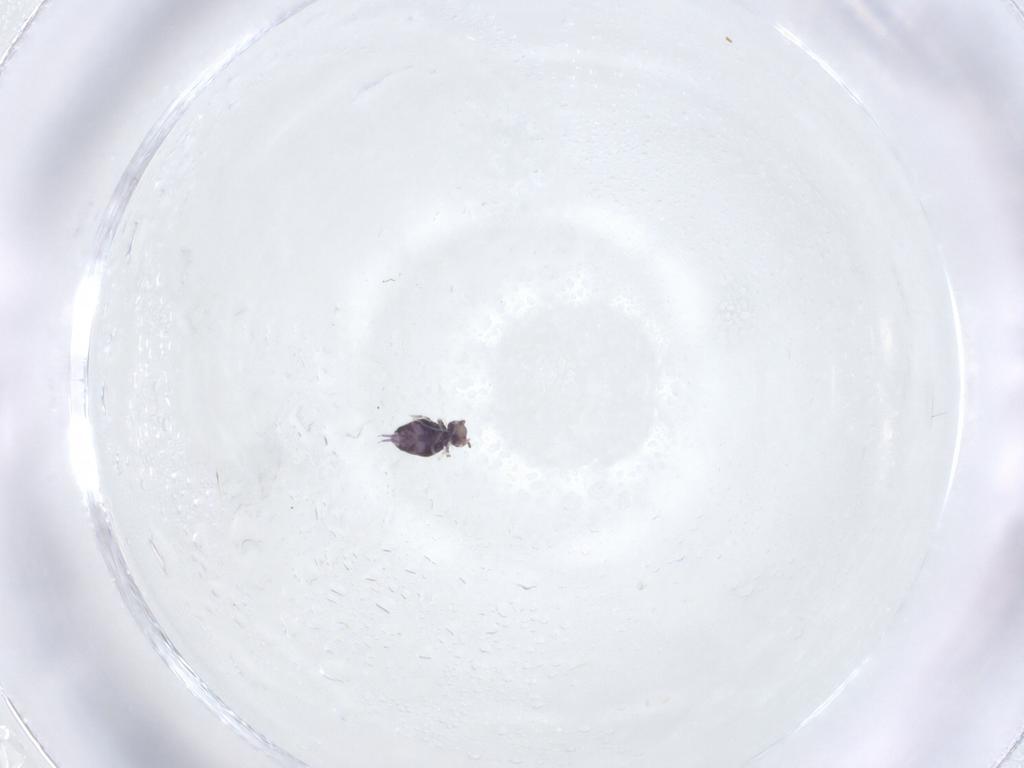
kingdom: Animalia
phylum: Arthropoda
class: Collembola
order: Symphypleona
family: Sminthuridae
